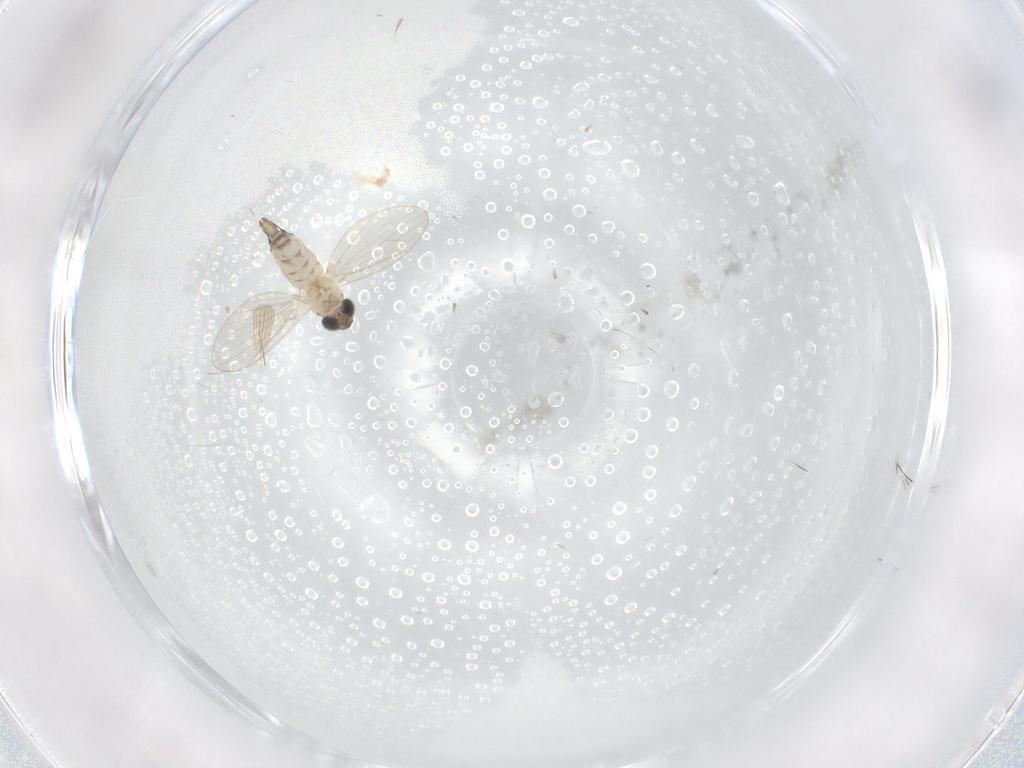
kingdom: Animalia
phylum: Arthropoda
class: Insecta
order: Diptera
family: Psychodidae
